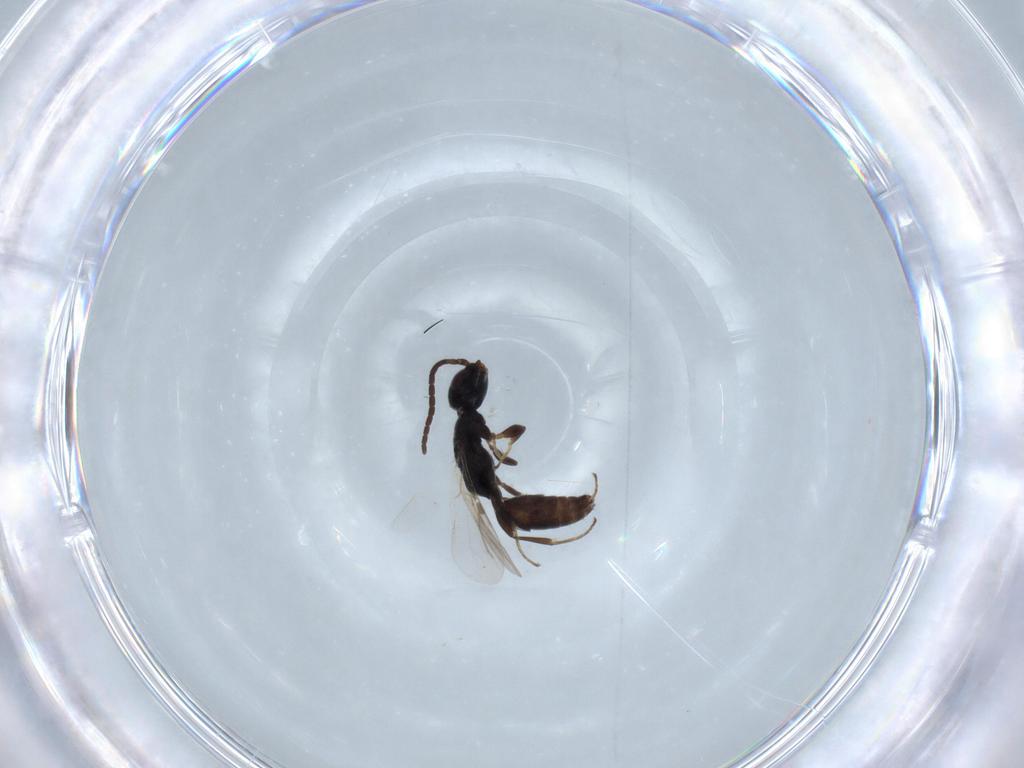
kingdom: Animalia
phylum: Arthropoda
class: Insecta
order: Hymenoptera
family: Bethylidae
